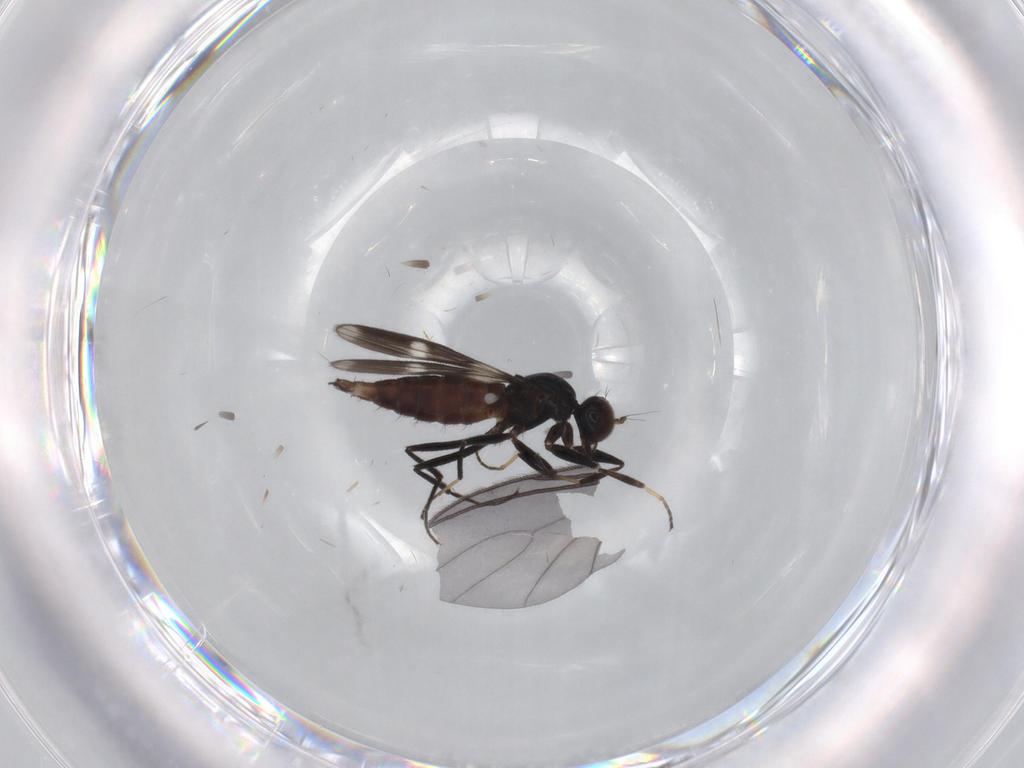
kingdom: Animalia
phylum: Arthropoda
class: Insecta
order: Diptera
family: Hybotidae
